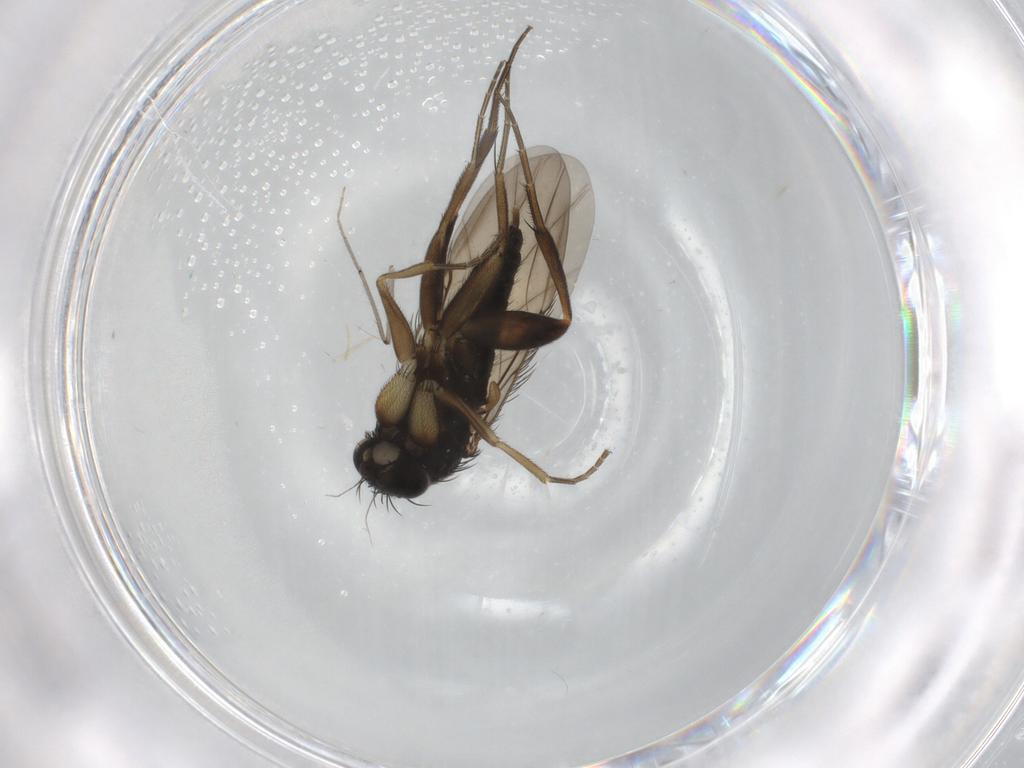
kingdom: Animalia
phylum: Arthropoda
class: Insecta
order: Diptera
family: Phoridae
